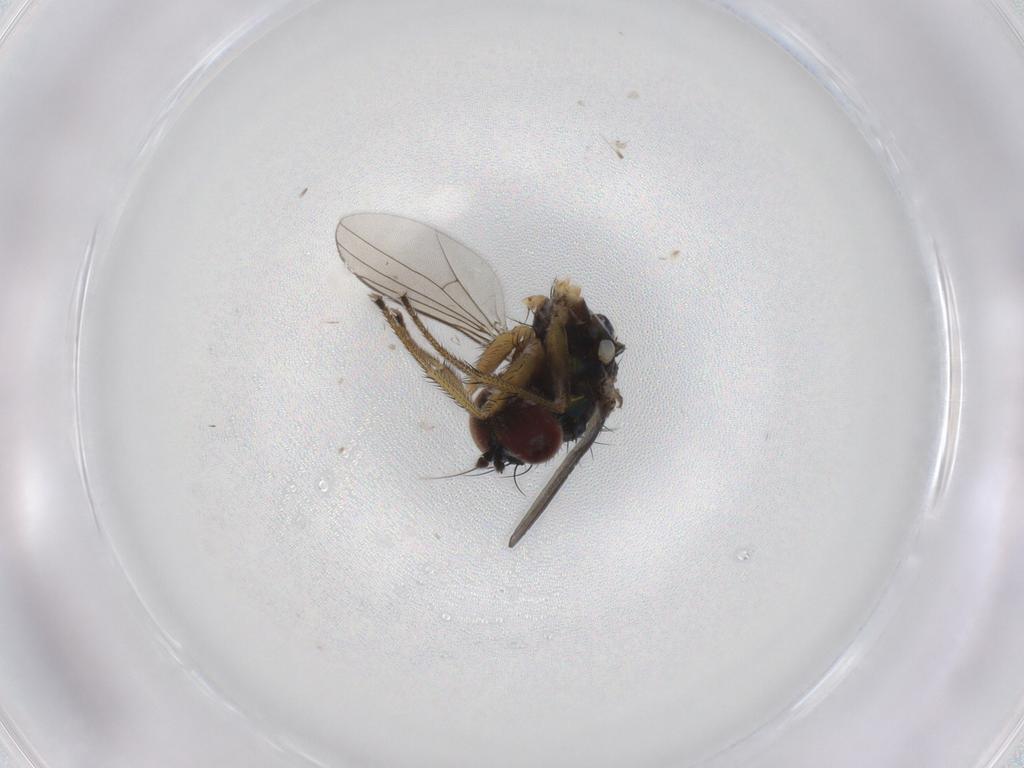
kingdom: Animalia
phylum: Arthropoda
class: Insecta
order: Diptera
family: Dolichopodidae
